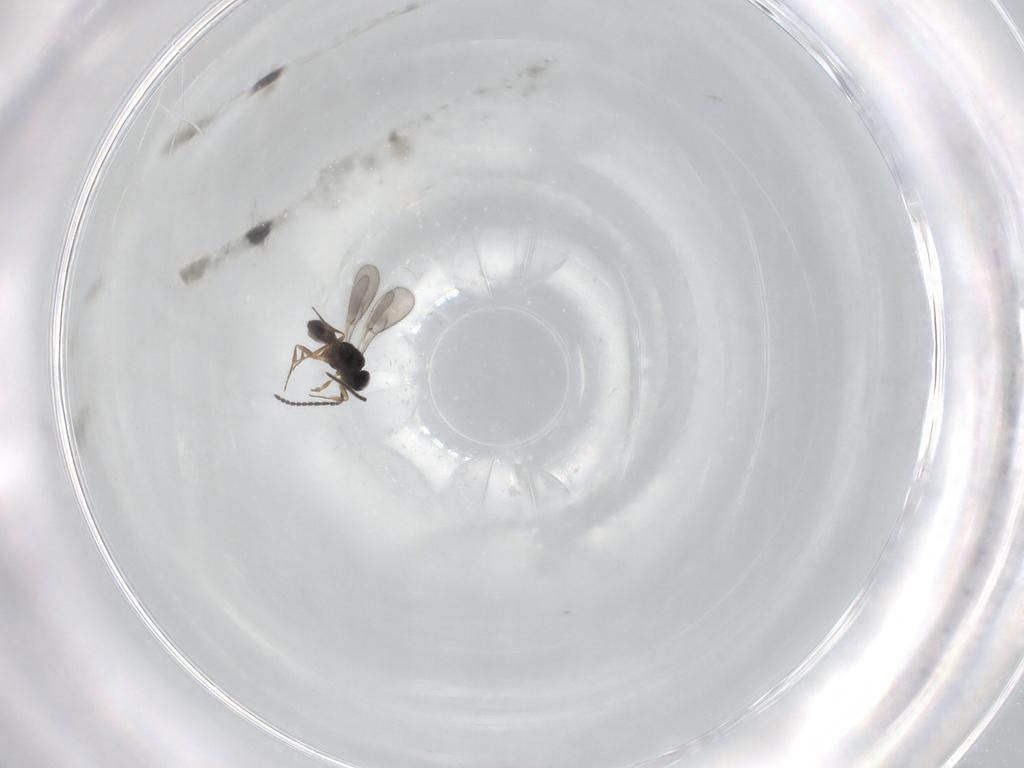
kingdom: Animalia
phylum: Arthropoda
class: Insecta
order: Hymenoptera
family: Scelionidae
